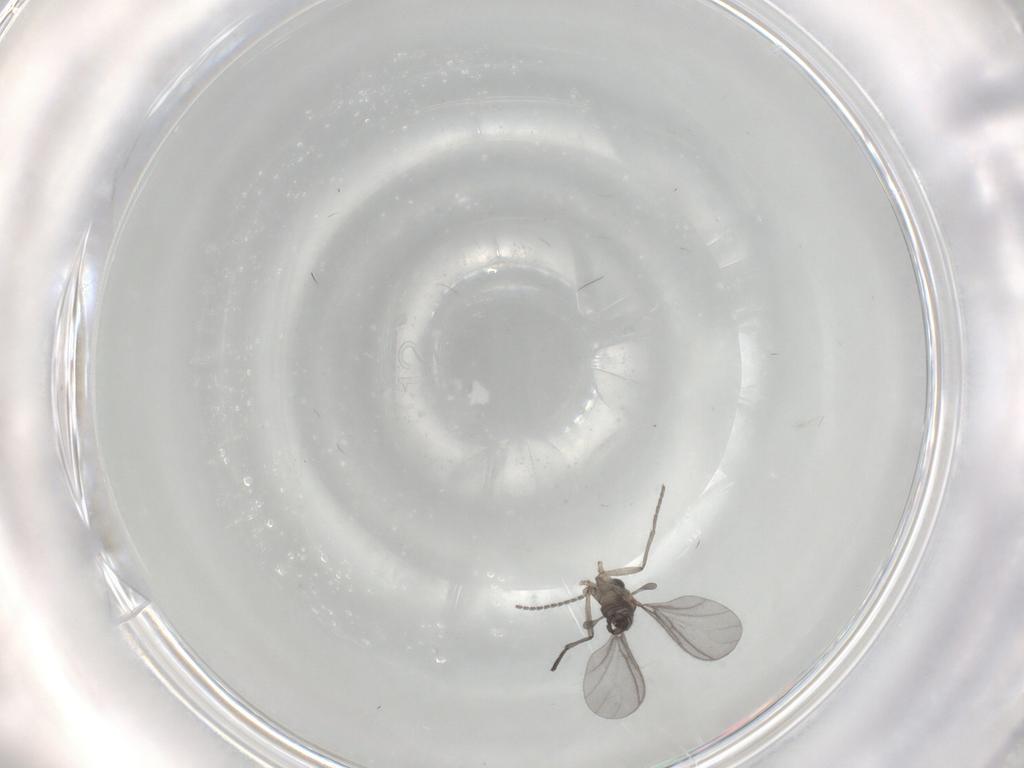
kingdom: Animalia
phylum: Arthropoda
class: Insecta
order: Diptera
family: Sciaridae
